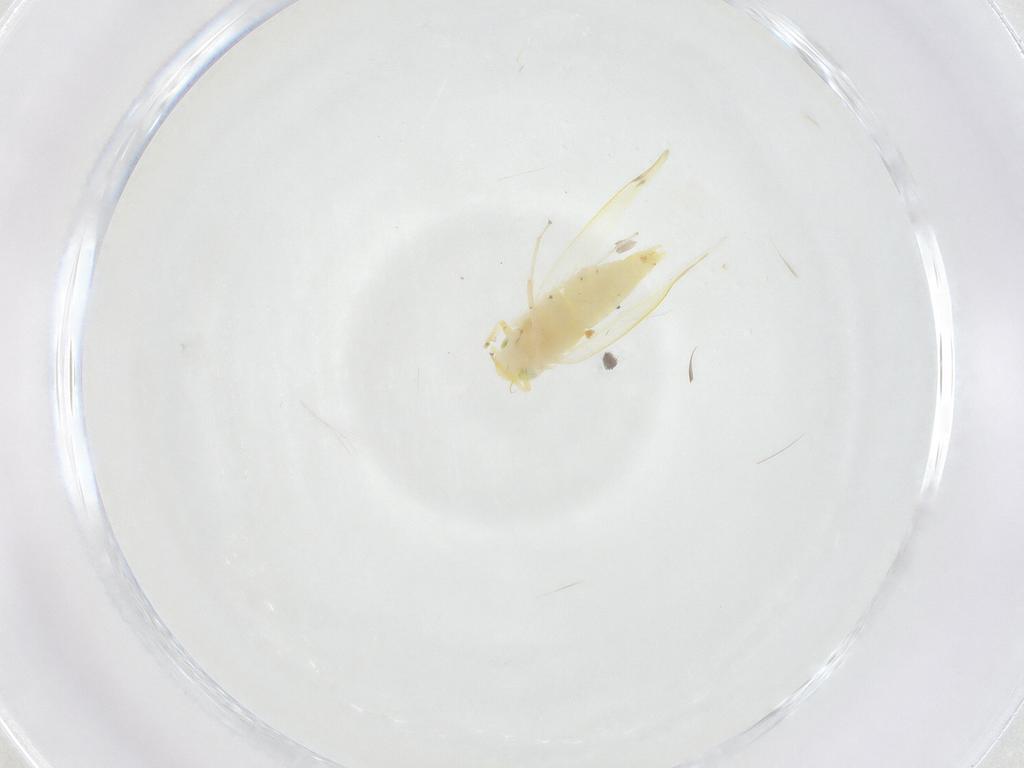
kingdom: Animalia
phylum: Arthropoda
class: Insecta
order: Hemiptera
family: Cicadellidae
